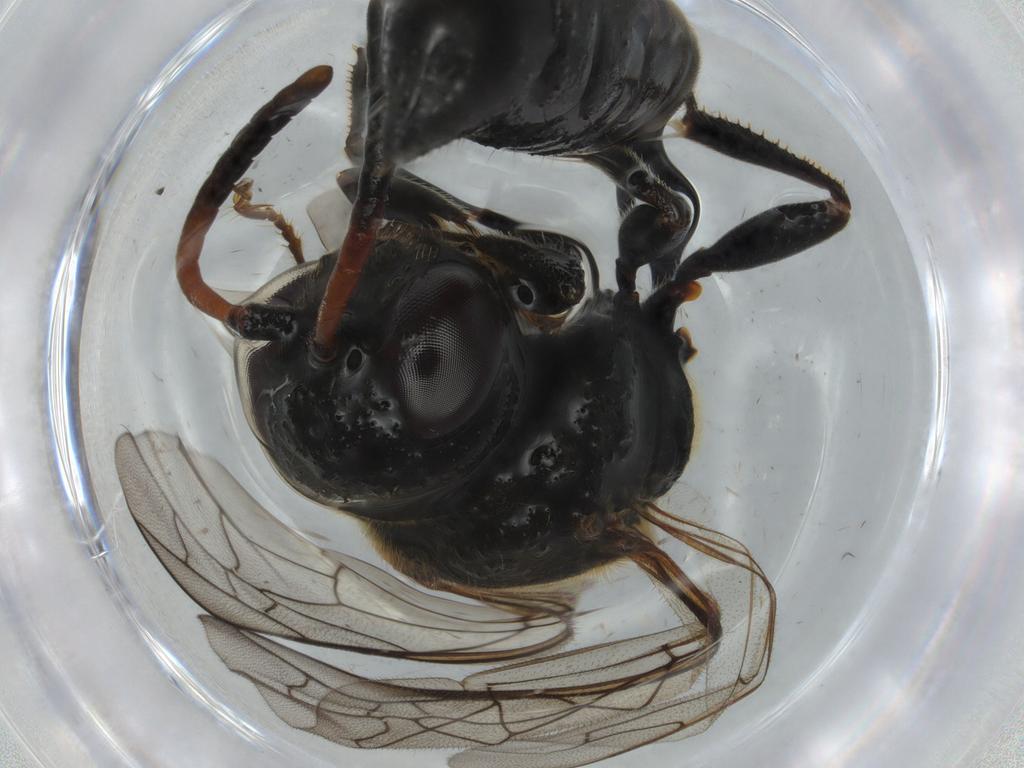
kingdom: Animalia
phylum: Arthropoda
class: Insecta
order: Hymenoptera
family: Psenidae
